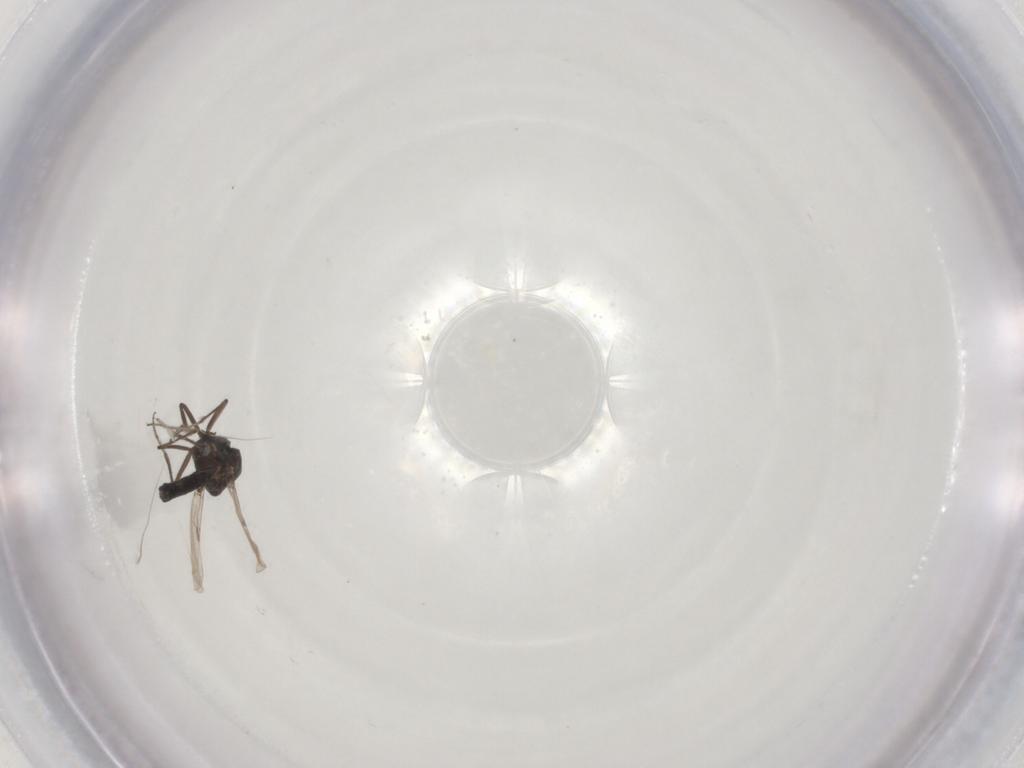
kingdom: Animalia
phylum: Arthropoda
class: Insecta
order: Diptera
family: Ceratopogonidae
